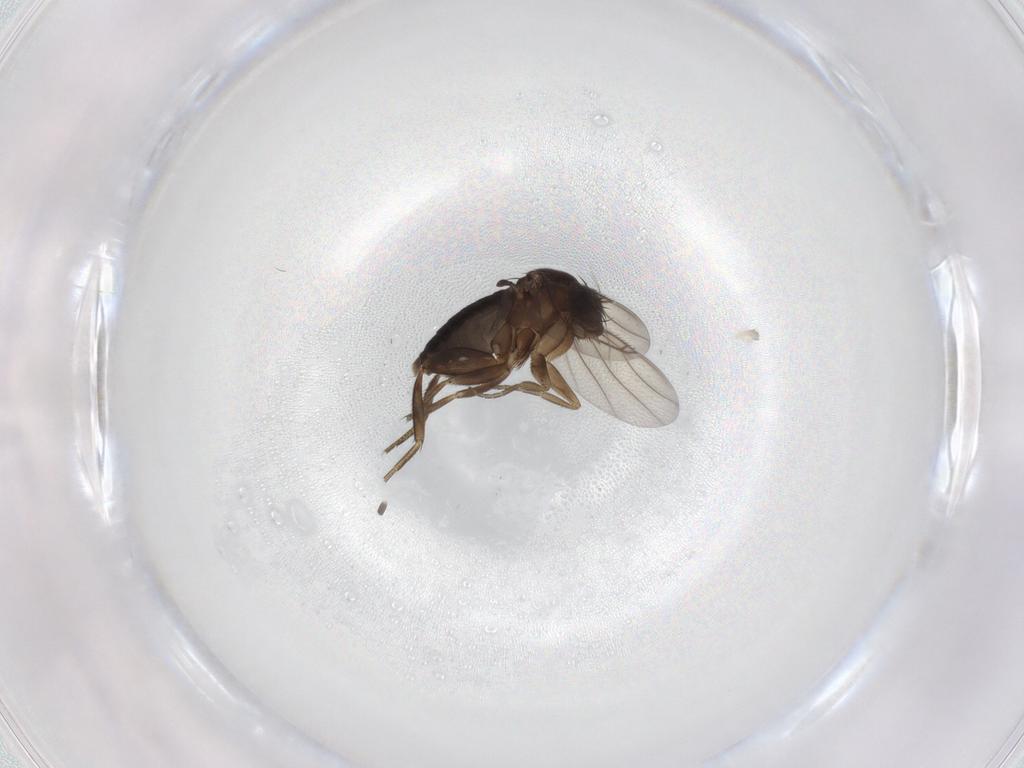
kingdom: Animalia
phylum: Arthropoda
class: Insecta
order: Diptera
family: Phoridae
